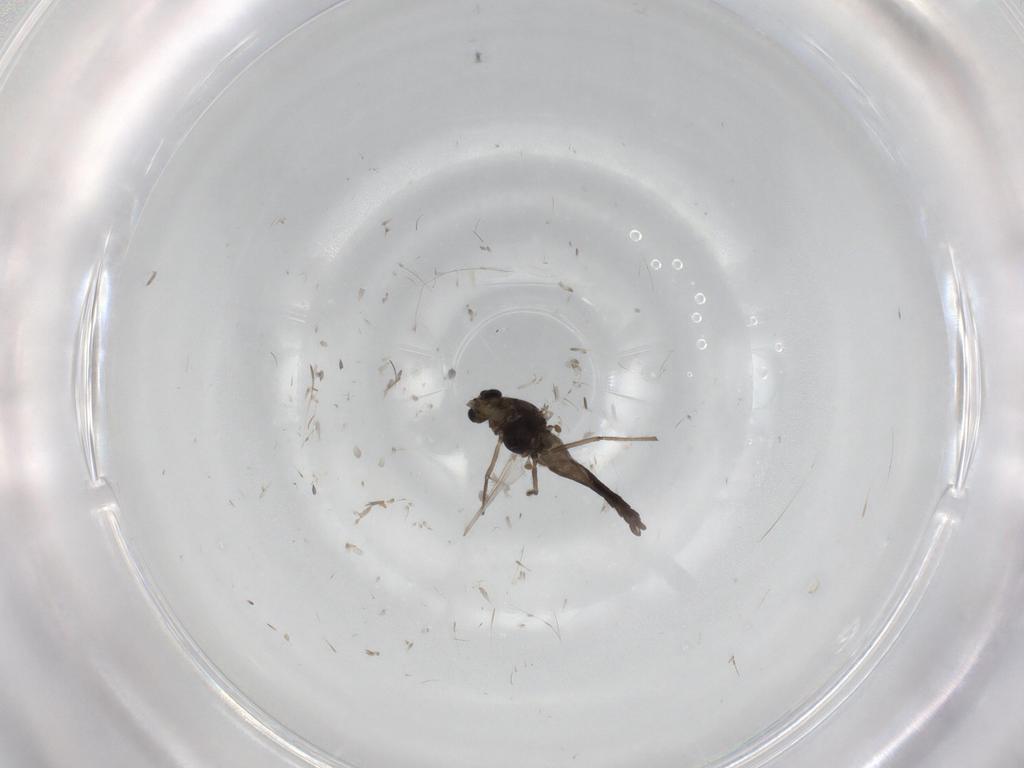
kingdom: Animalia
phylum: Arthropoda
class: Insecta
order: Diptera
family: Chironomidae
